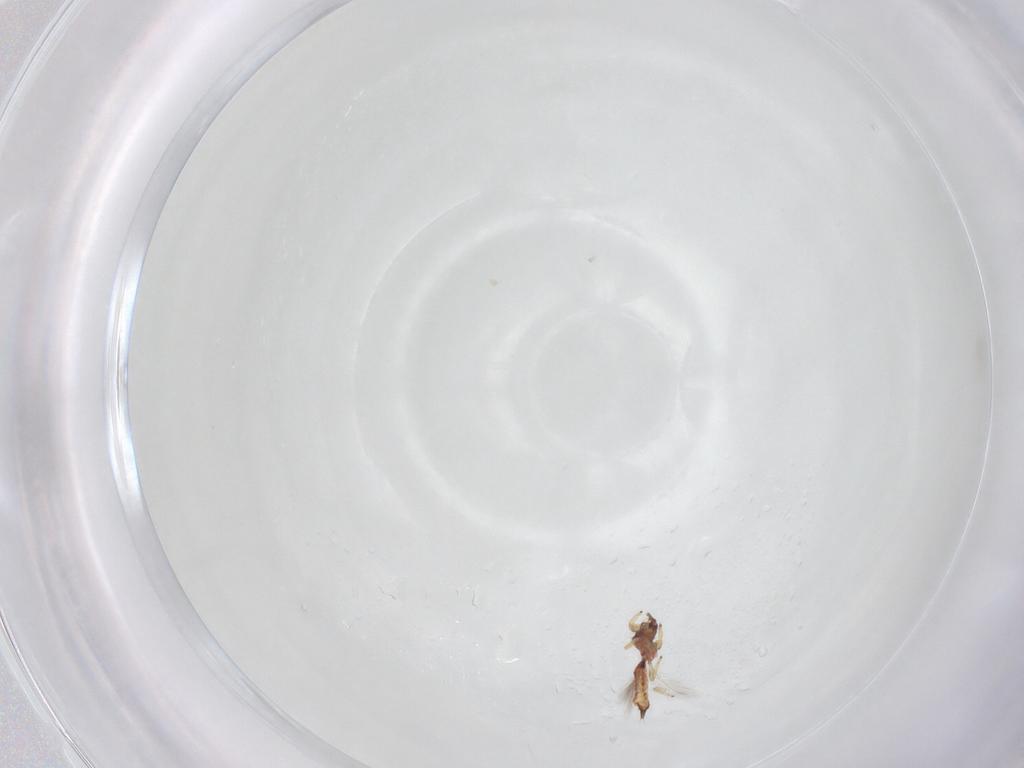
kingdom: Animalia
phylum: Arthropoda
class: Insecta
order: Thysanoptera
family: Phlaeothripidae
